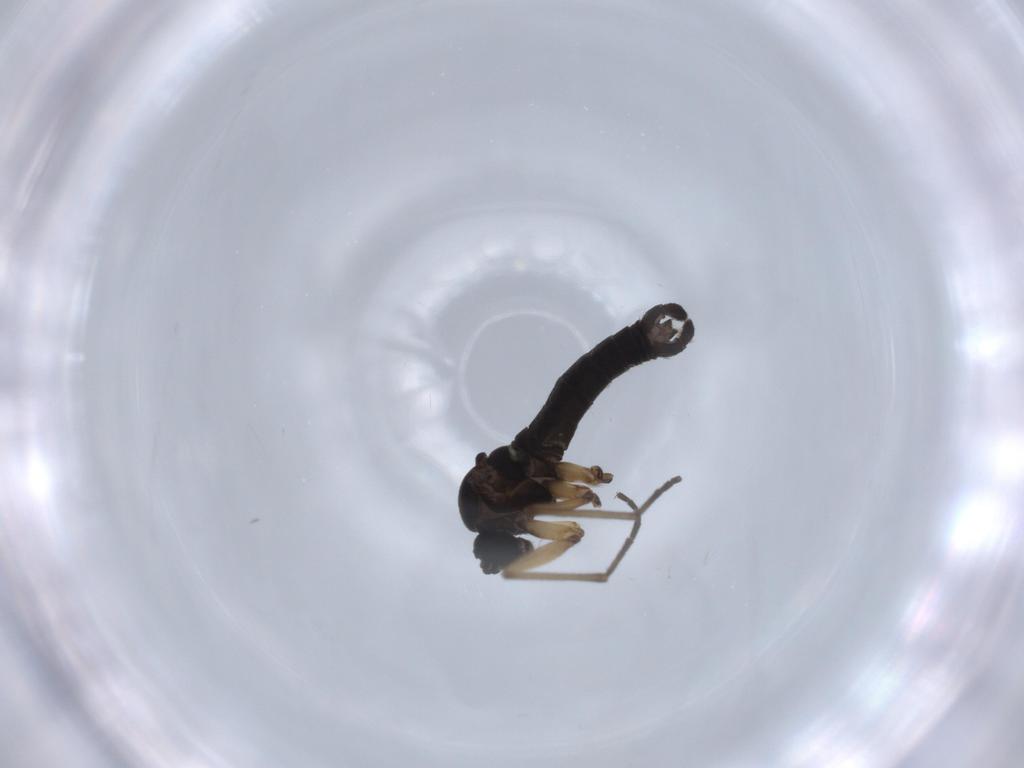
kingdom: Animalia
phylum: Arthropoda
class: Insecta
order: Diptera
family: Sciaridae
